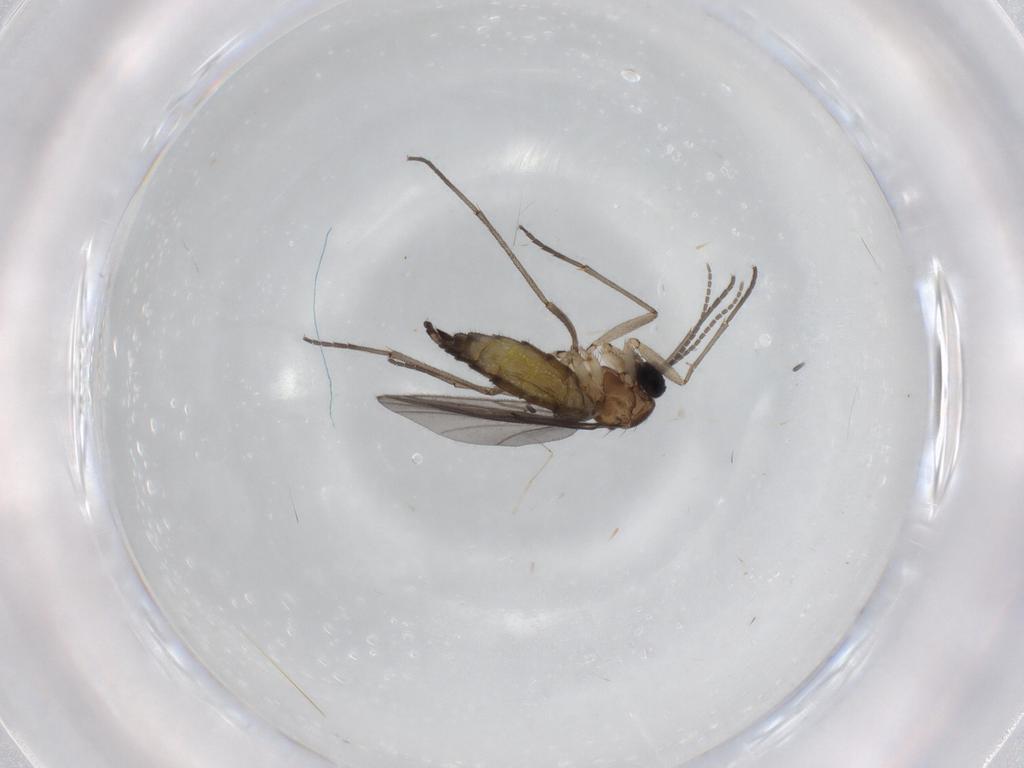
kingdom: Animalia
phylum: Arthropoda
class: Insecta
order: Diptera
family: Sciaridae
